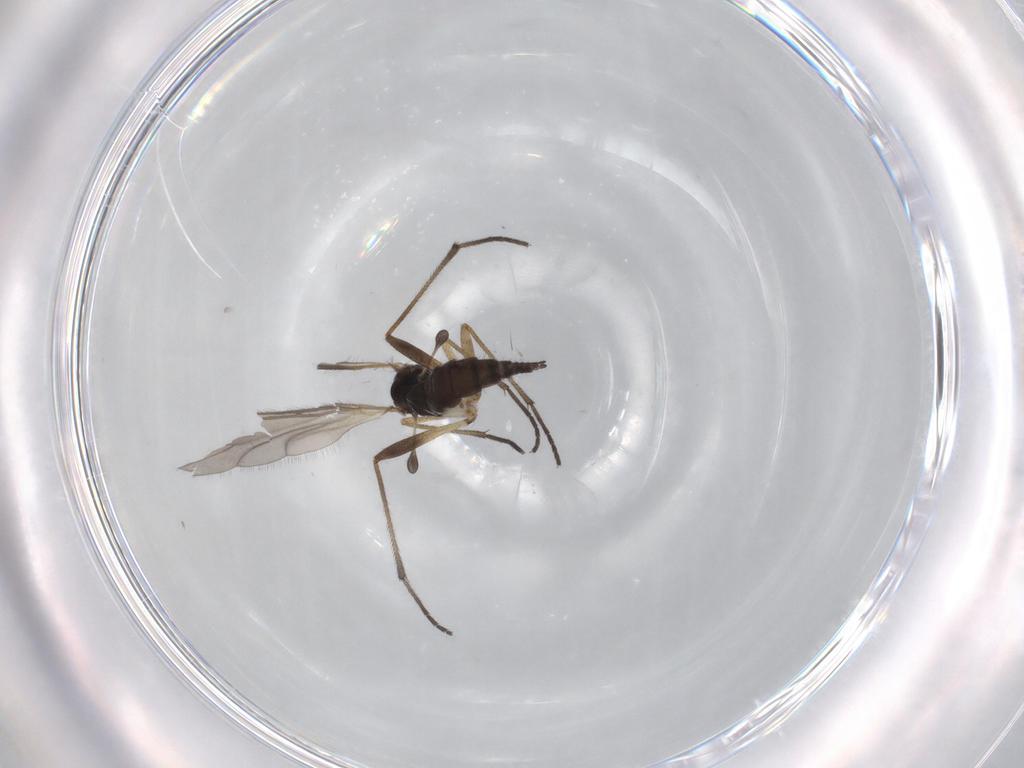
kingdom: Animalia
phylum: Arthropoda
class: Insecta
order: Diptera
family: Sciaridae
